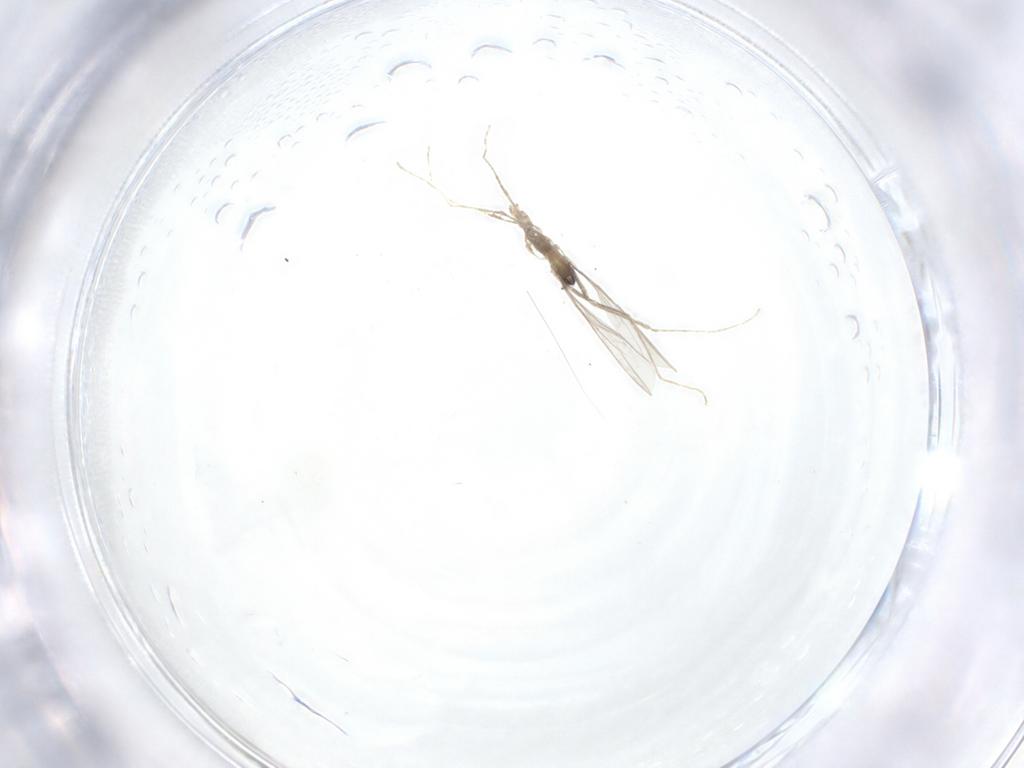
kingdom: Animalia
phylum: Arthropoda
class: Insecta
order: Diptera
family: Cecidomyiidae
